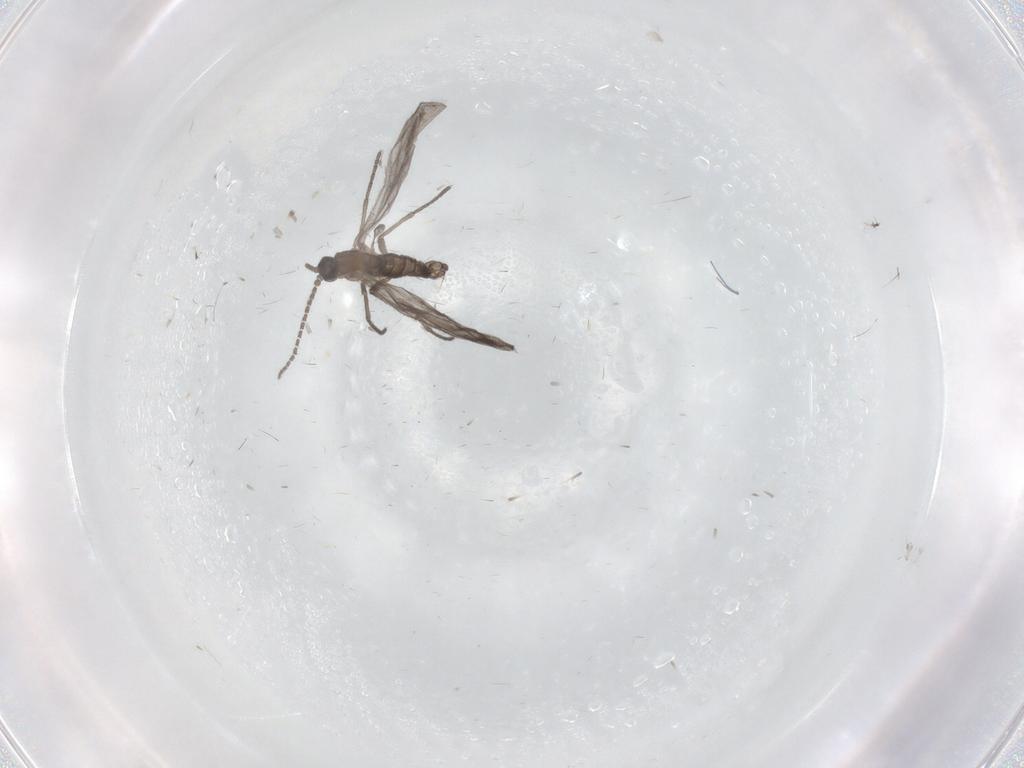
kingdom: Animalia
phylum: Arthropoda
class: Insecta
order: Diptera
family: Sciaridae
